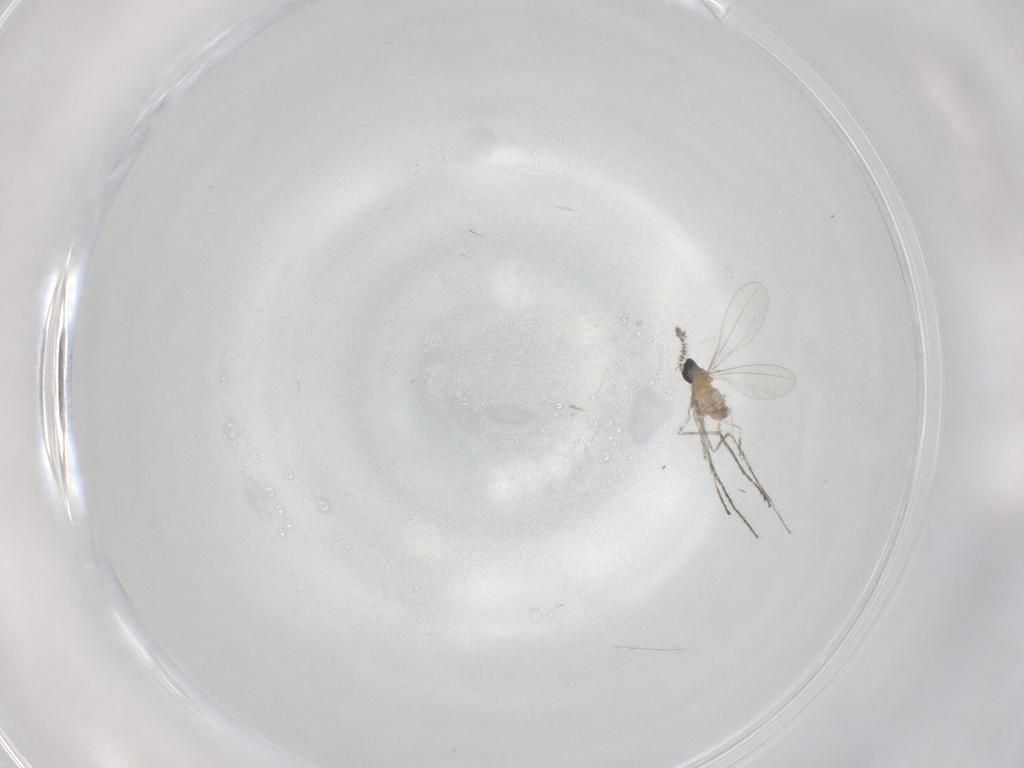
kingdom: Animalia
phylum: Arthropoda
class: Insecta
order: Diptera
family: Cecidomyiidae
